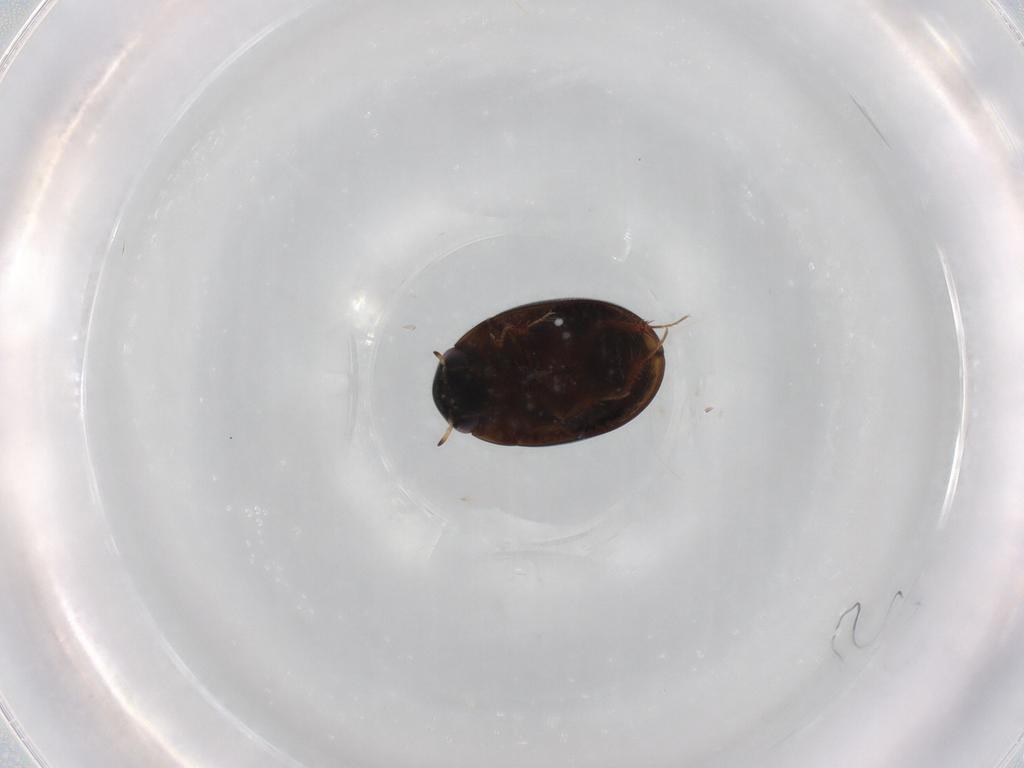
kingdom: Animalia
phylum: Arthropoda
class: Insecta
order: Coleoptera
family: Hydrophilidae
